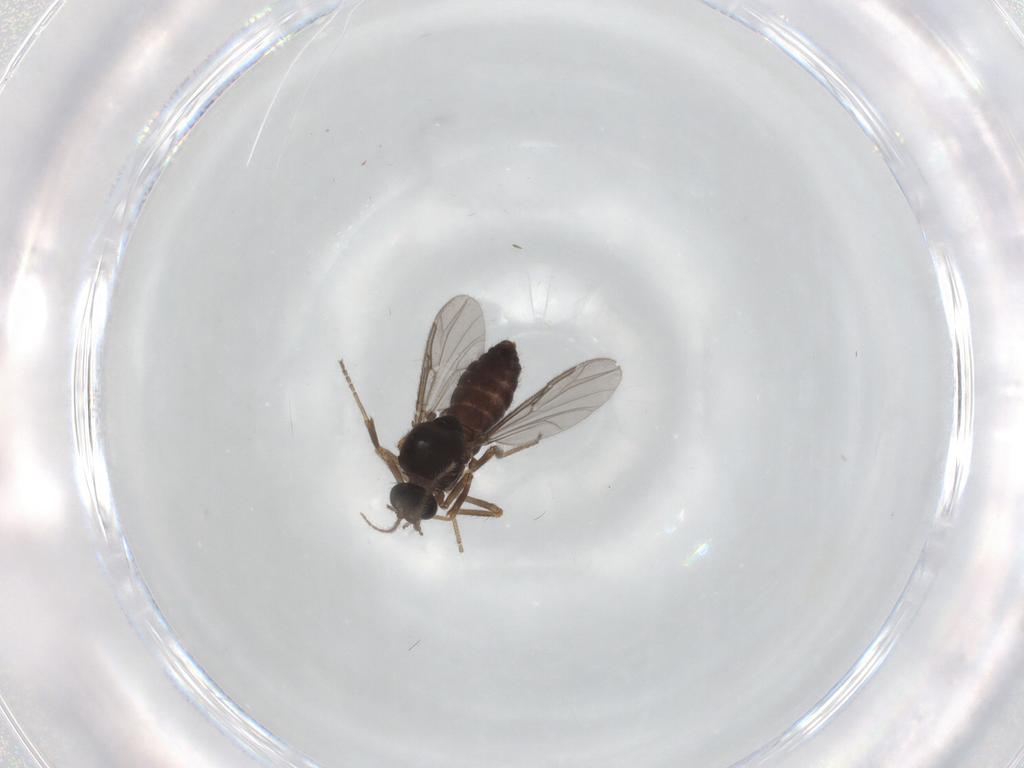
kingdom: Animalia
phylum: Arthropoda
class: Insecta
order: Diptera
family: Ceratopogonidae
